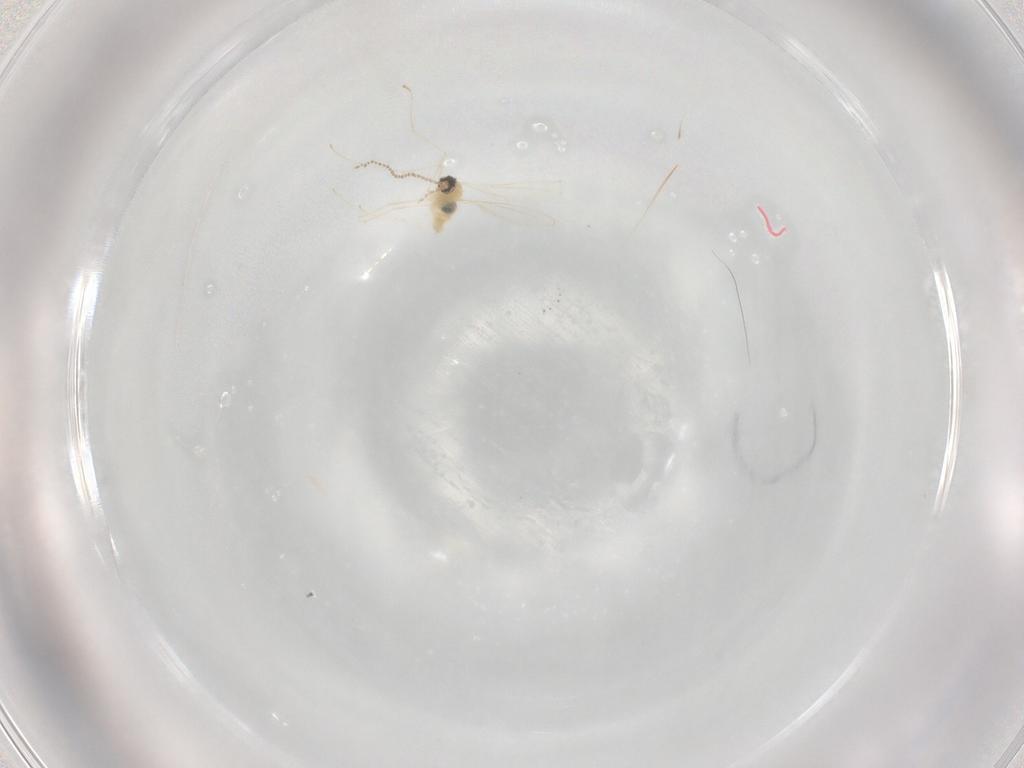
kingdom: Animalia
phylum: Arthropoda
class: Insecta
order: Diptera
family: Cecidomyiidae
